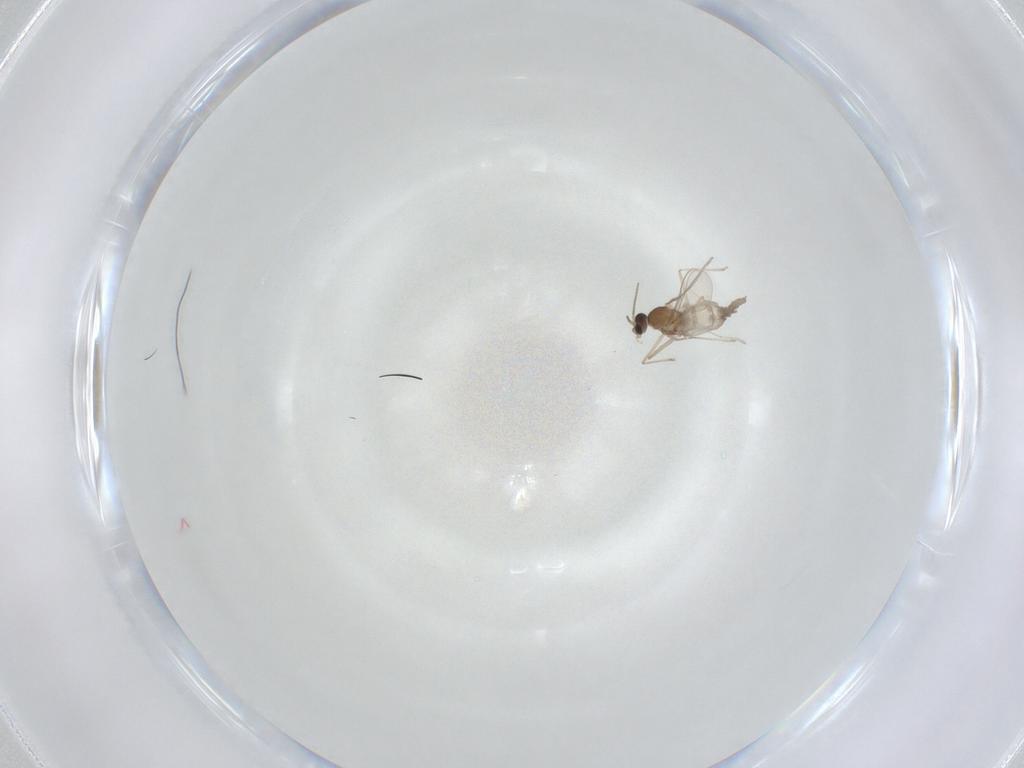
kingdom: Animalia
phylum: Arthropoda
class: Insecta
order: Diptera
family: Cecidomyiidae
